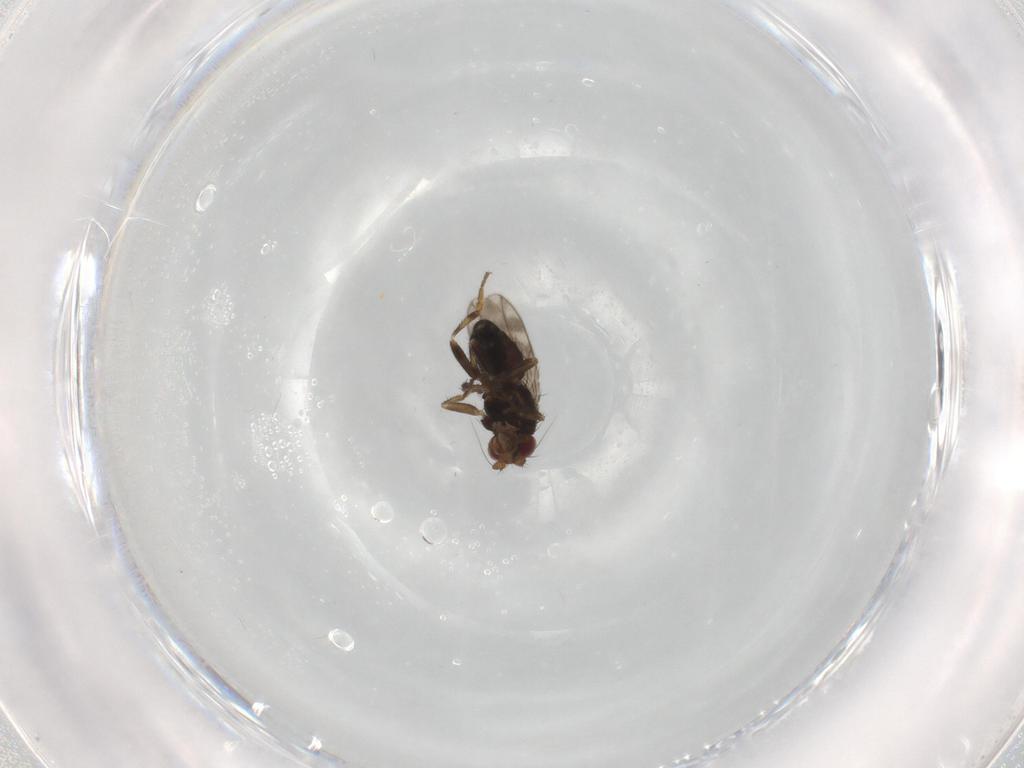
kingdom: Animalia
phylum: Arthropoda
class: Insecta
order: Diptera
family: Sphaeroceridae
